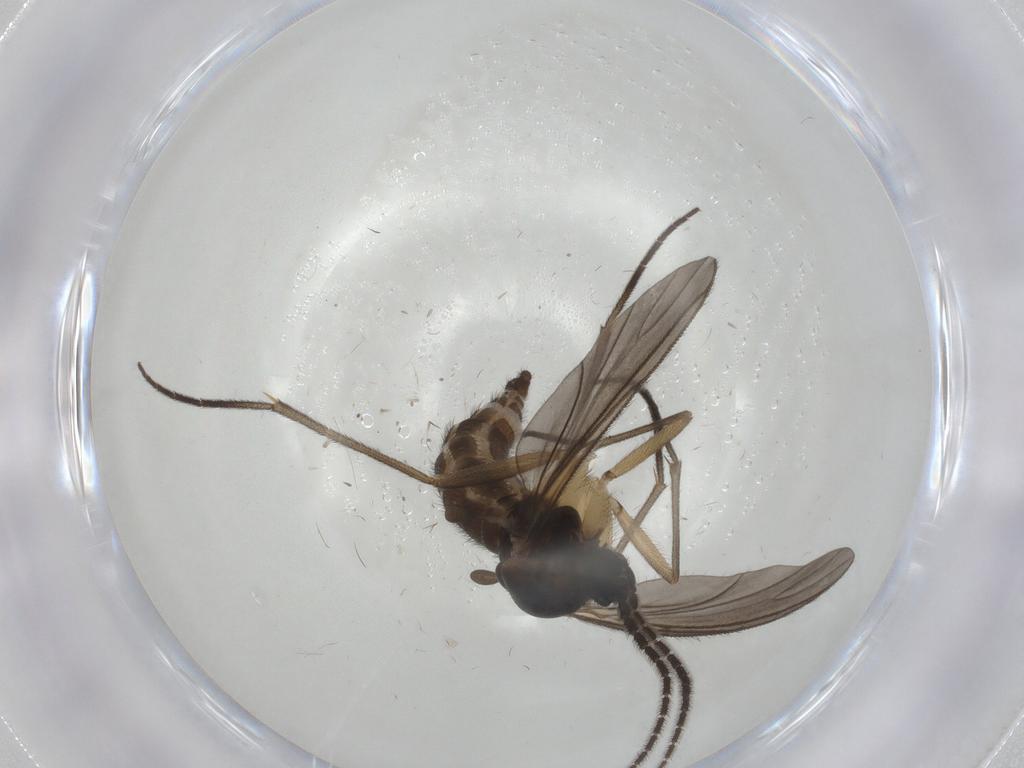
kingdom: Animalia
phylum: Arthropoda
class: Insecta
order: Diptera
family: Sciaridae
